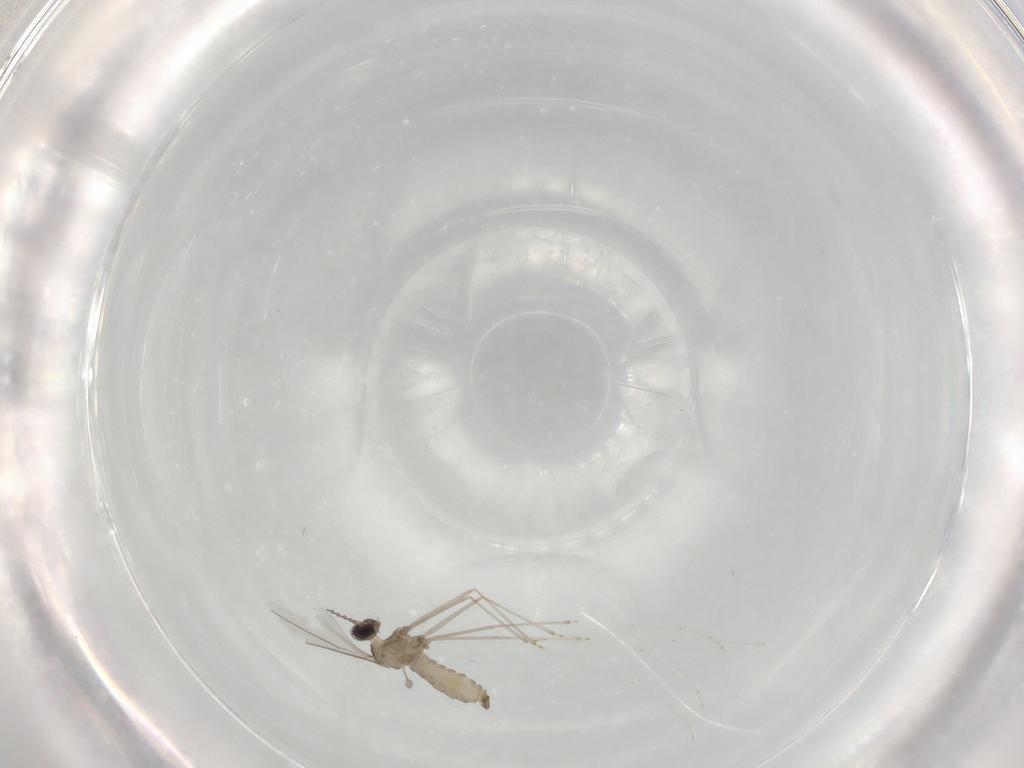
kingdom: Animalia
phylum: Arthropoda
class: Insecta
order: Diptera
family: Cecidomyiidae
